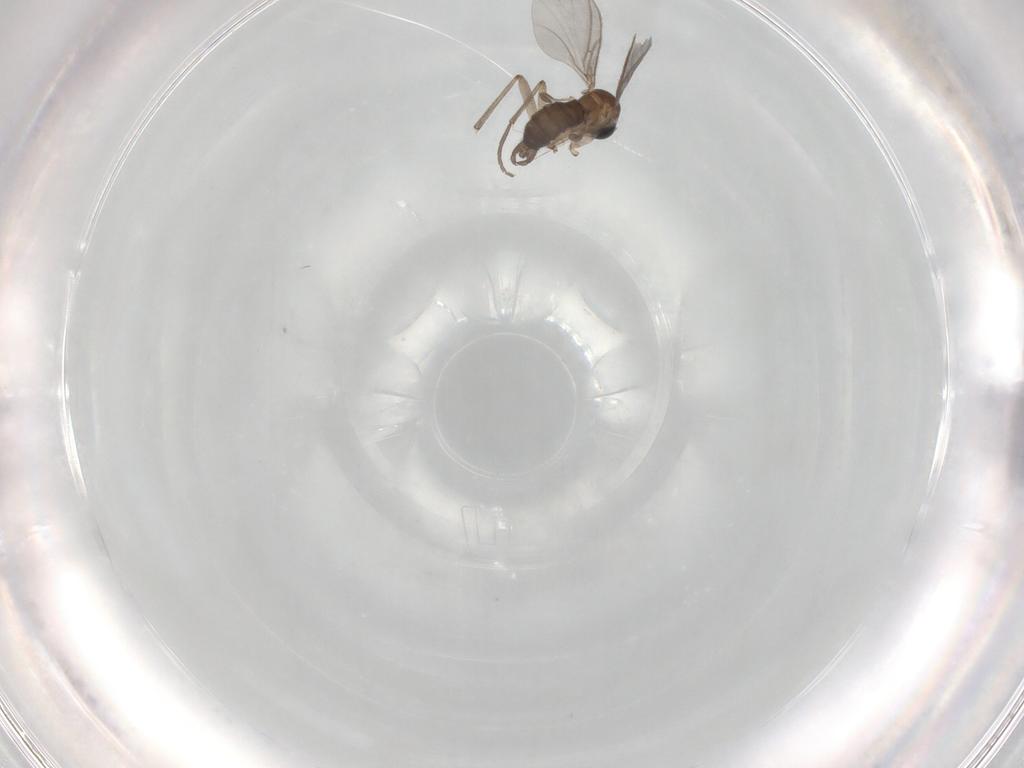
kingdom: Animalia
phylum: Arthropoda
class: Insecta
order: Diptera
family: Sciaridae
